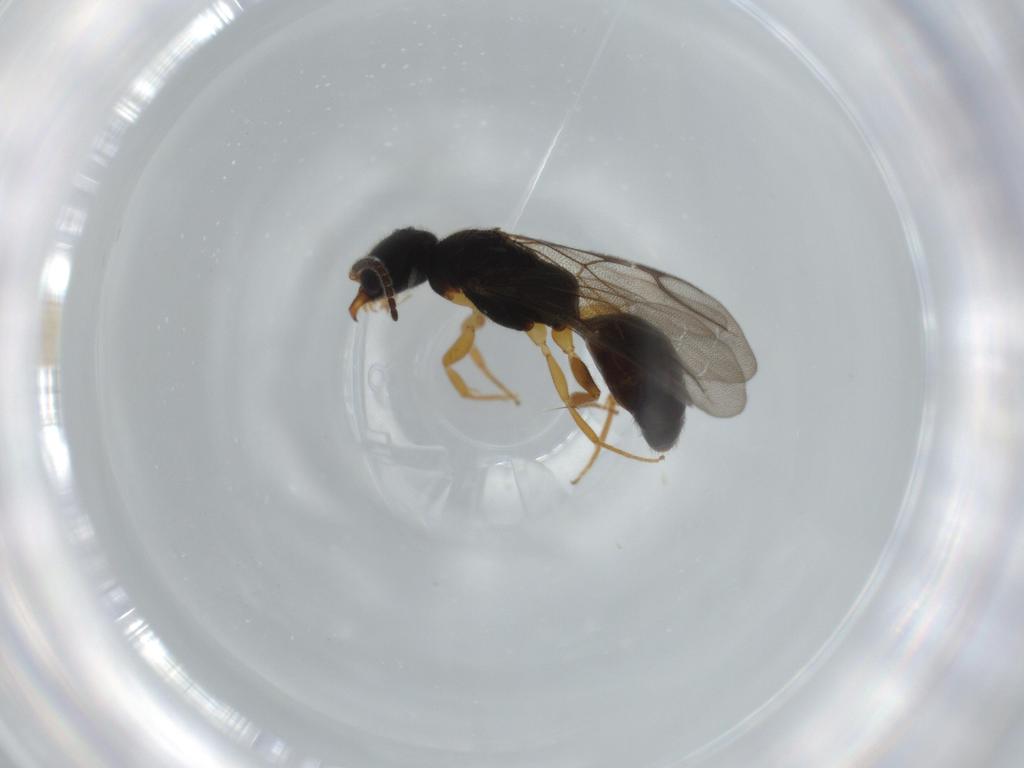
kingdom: Animalia
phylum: Arthropoda
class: Insecta
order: Hymenoptera
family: Bethylidae
